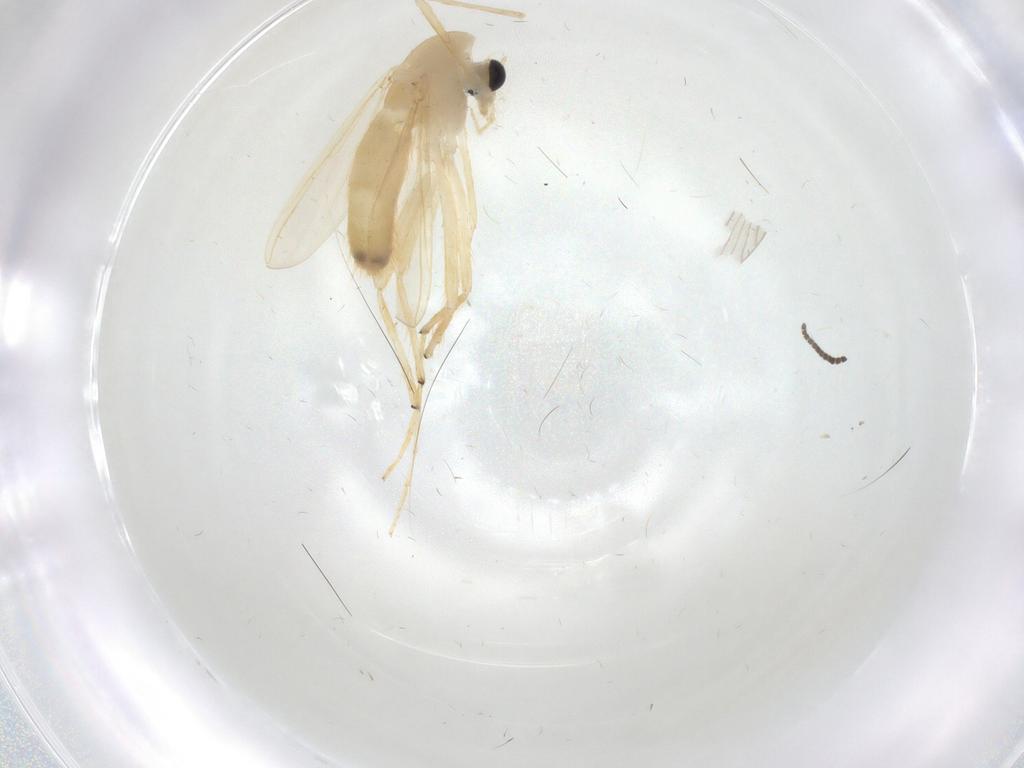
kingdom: Animalia
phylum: Arthropoda
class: Insecta
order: Diptera
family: Chironomidae
